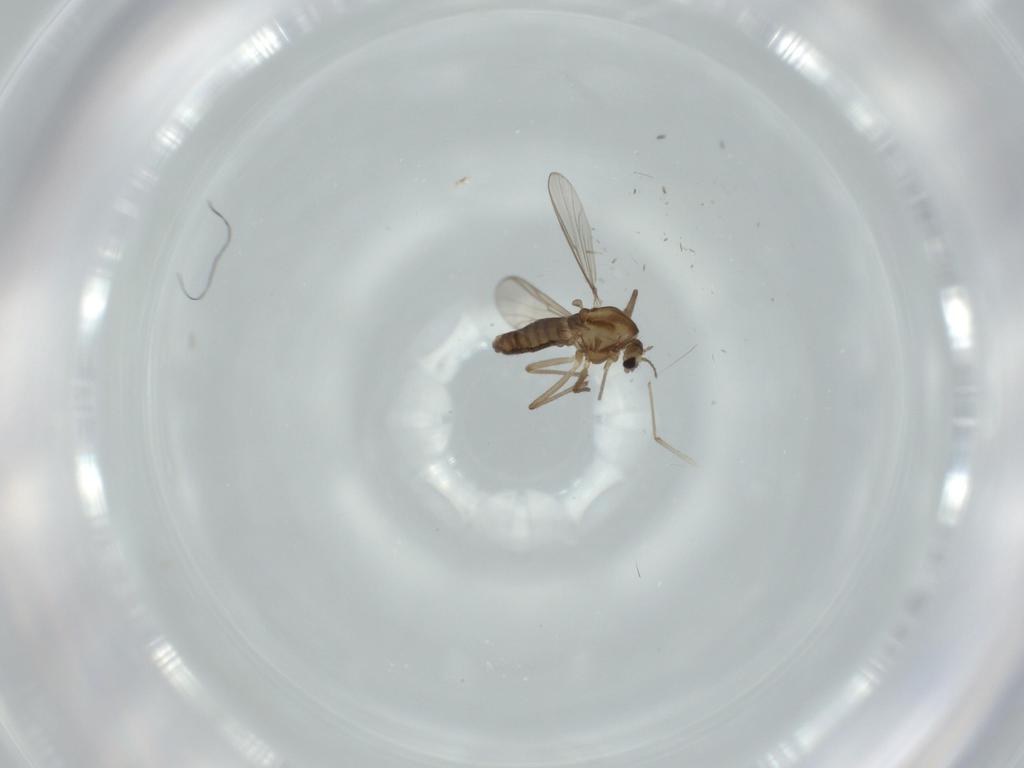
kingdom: Animalia
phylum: Arthropoda
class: Insecta
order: Diptera
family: Chironomidae
